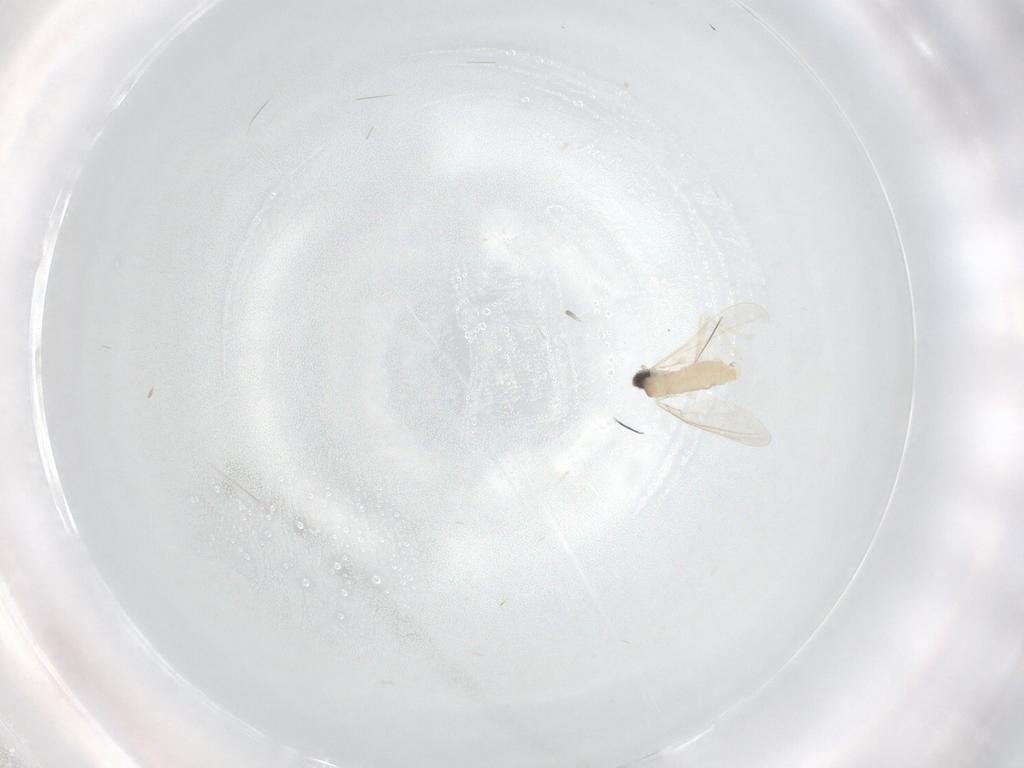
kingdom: Animalia
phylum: Arthropoda
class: Insecta
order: Diptera
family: Cecidomyiidae
